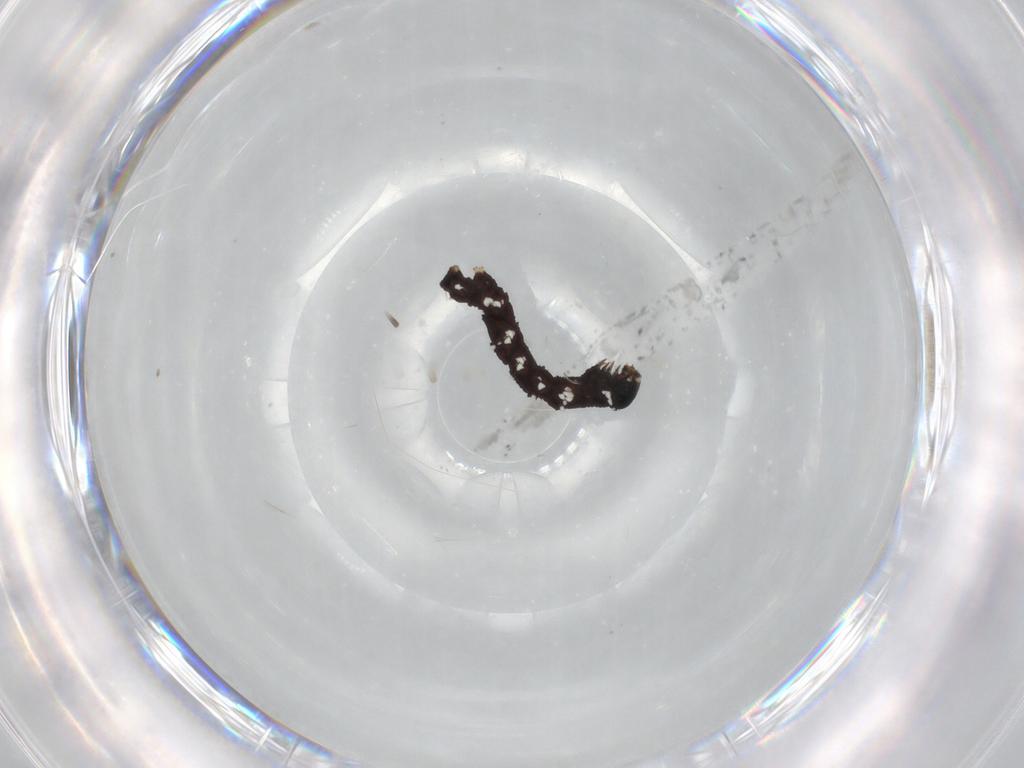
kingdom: Animalia
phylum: Arthropoda
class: Insecta
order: Lepidoptera
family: Geometridae
